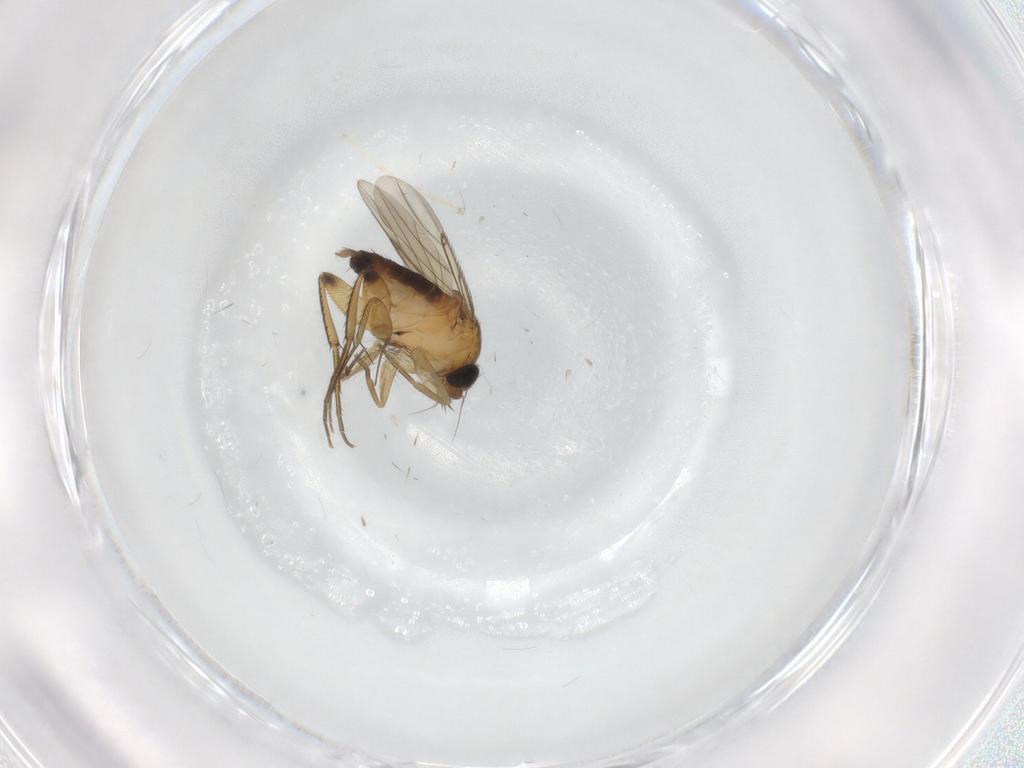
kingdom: Animalia
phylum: Arthropoda
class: Insecta
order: Diptera
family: Phoridae
